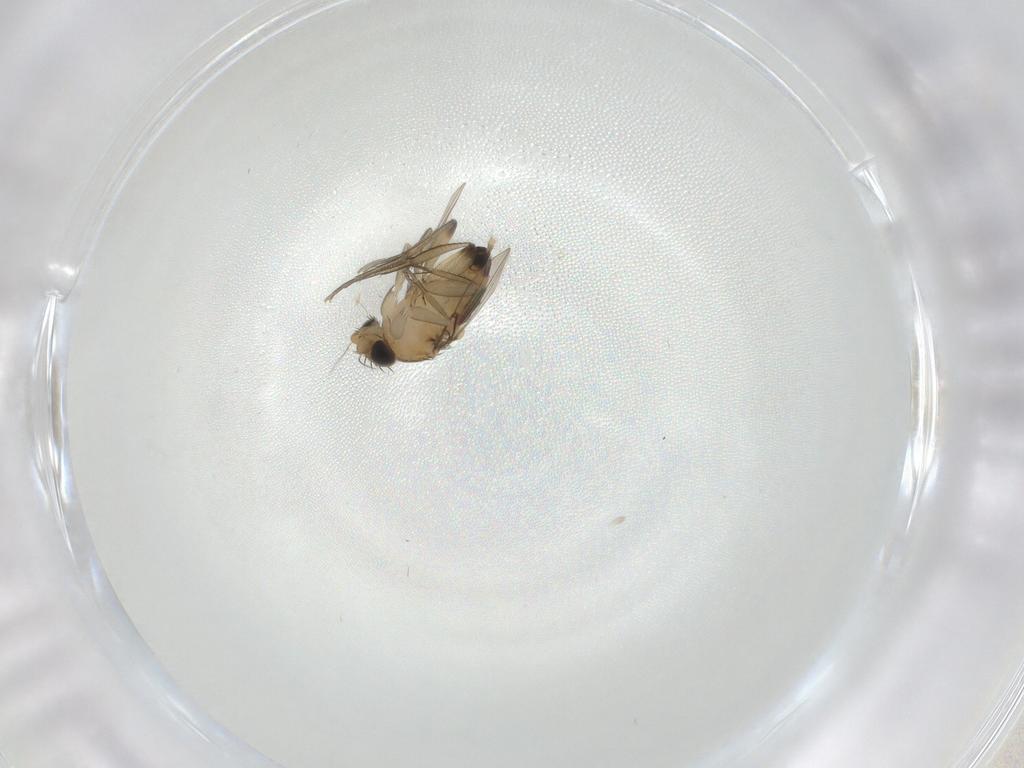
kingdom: Animalia
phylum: Arthropoda
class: Insecta
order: Diptera
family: Phoridae
